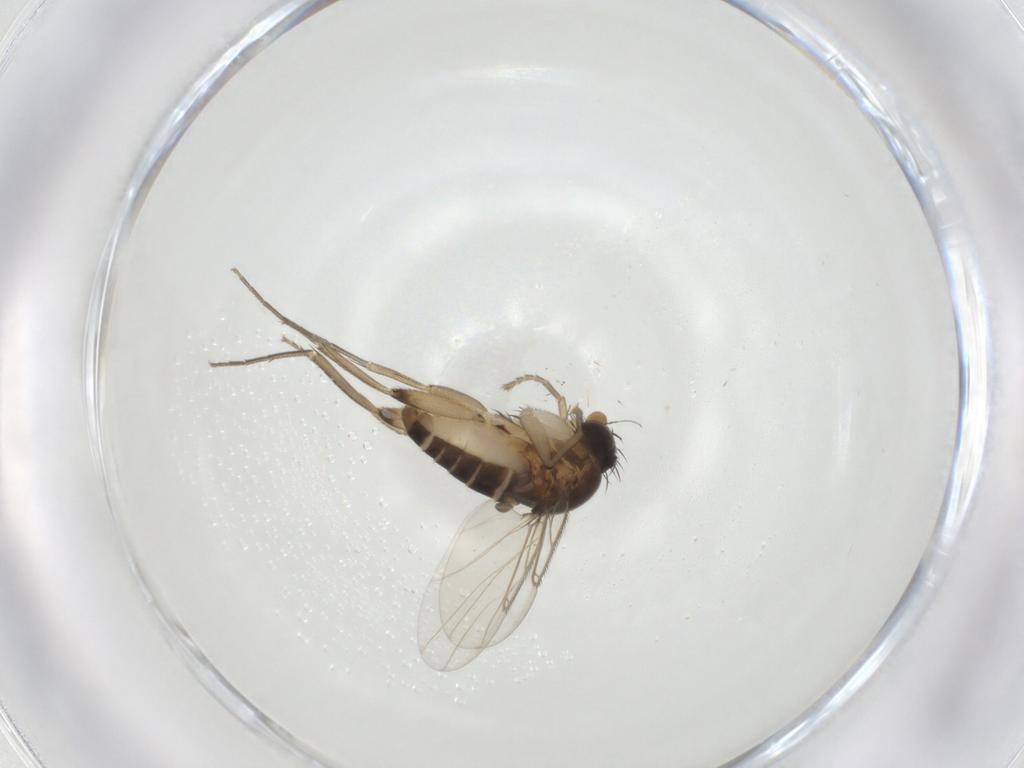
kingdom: Animalia
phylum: Arthropoda
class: Insecta
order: Diptera
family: Phoridae
